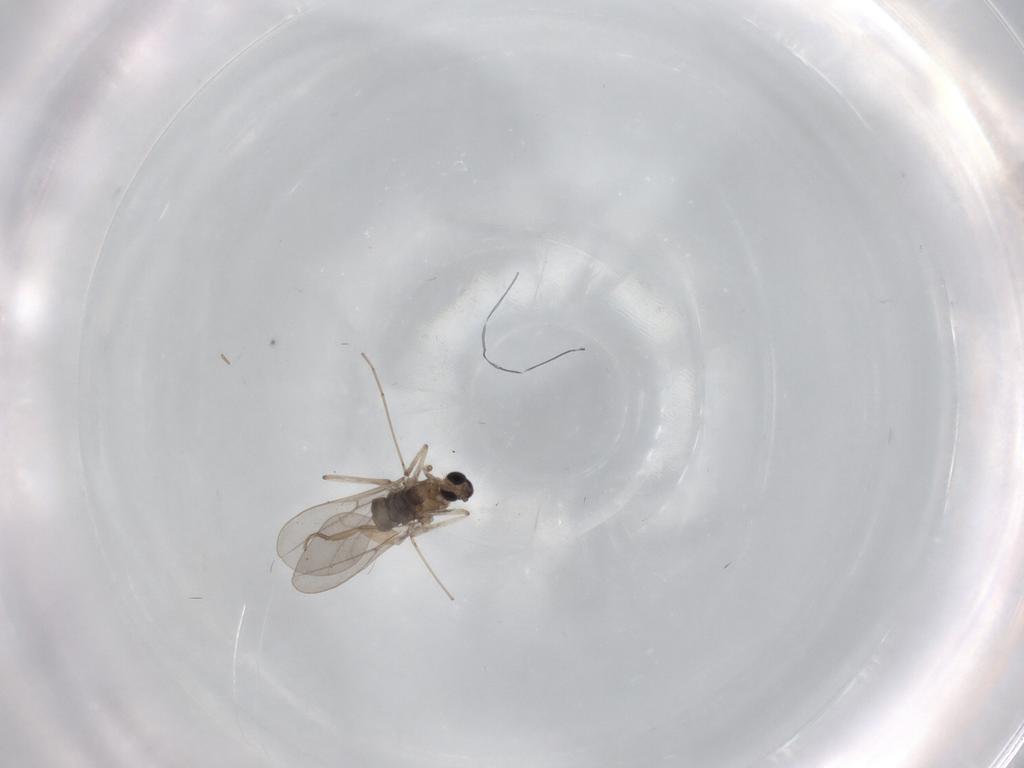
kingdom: Animalia
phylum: Arthropoda
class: Insecta
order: Diptera
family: Cecidomyiidae
